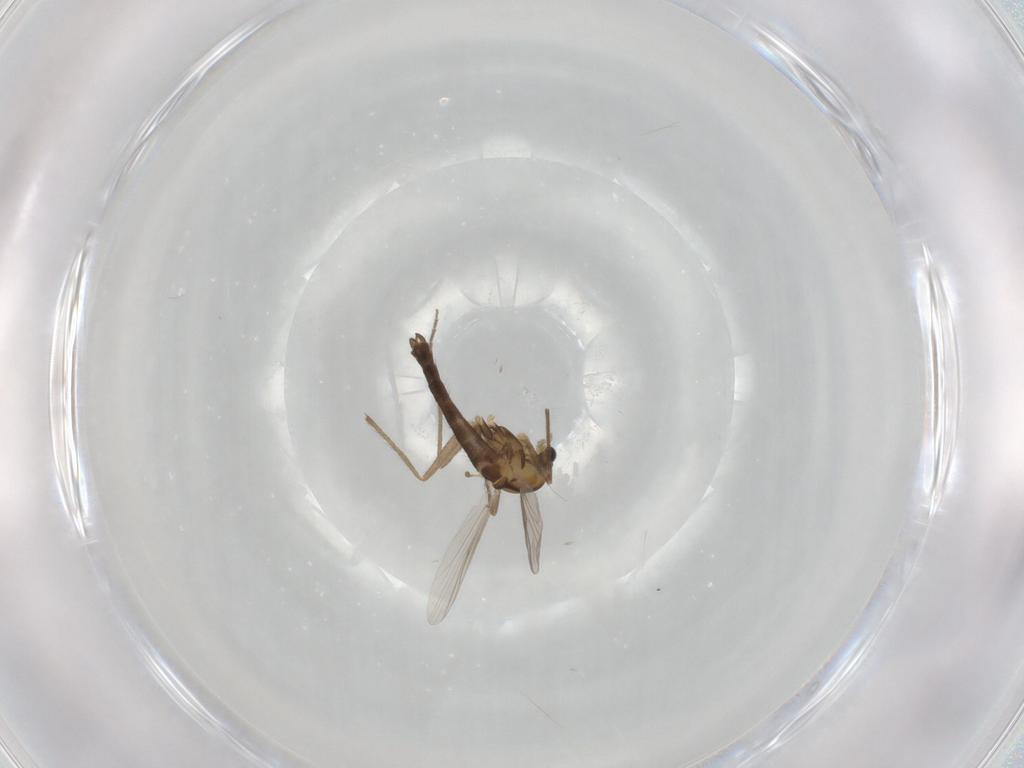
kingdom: Animalia
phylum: Arthropoda
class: Insecta
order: Diptera
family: Chironomidae
